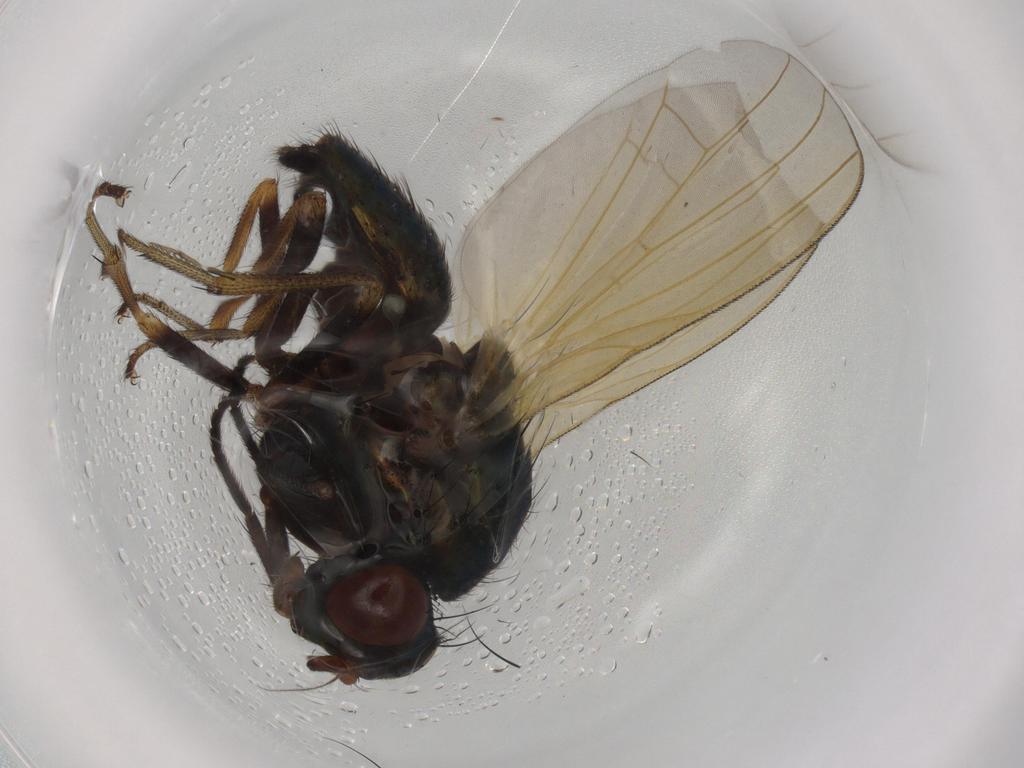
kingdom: Animalia
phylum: Arthropoda
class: Insecta
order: Diptera
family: Lauxaniidae
